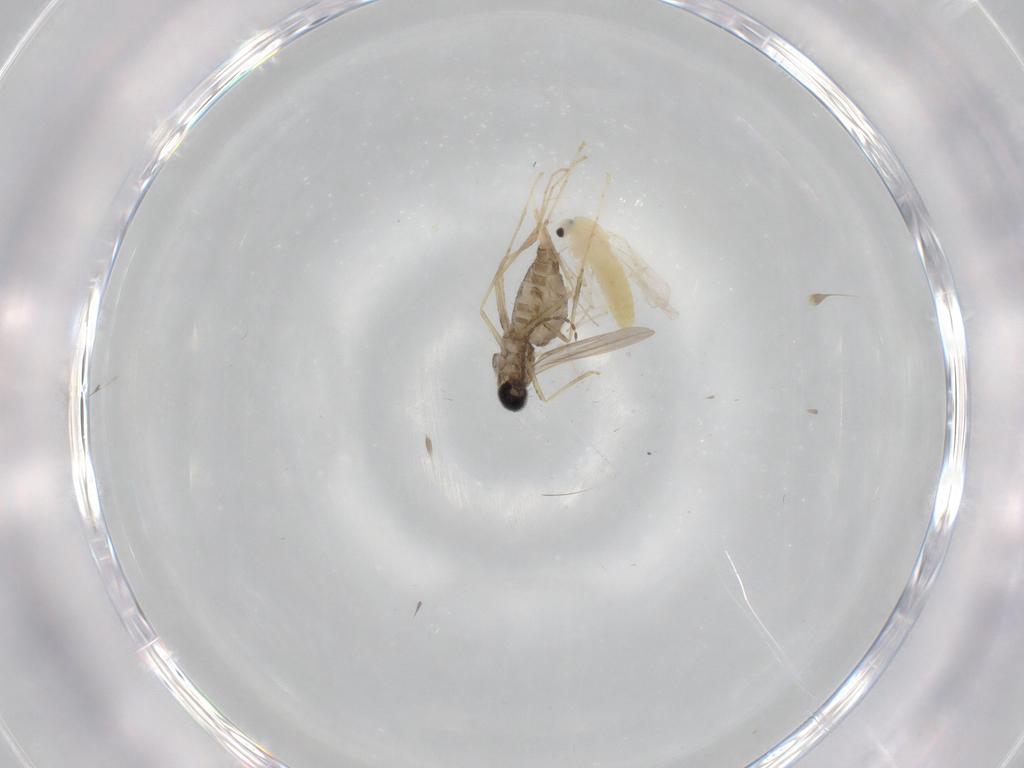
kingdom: Animalia
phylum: Arthropoda
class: Insecta
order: Diptera
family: Cecidomyiidae
